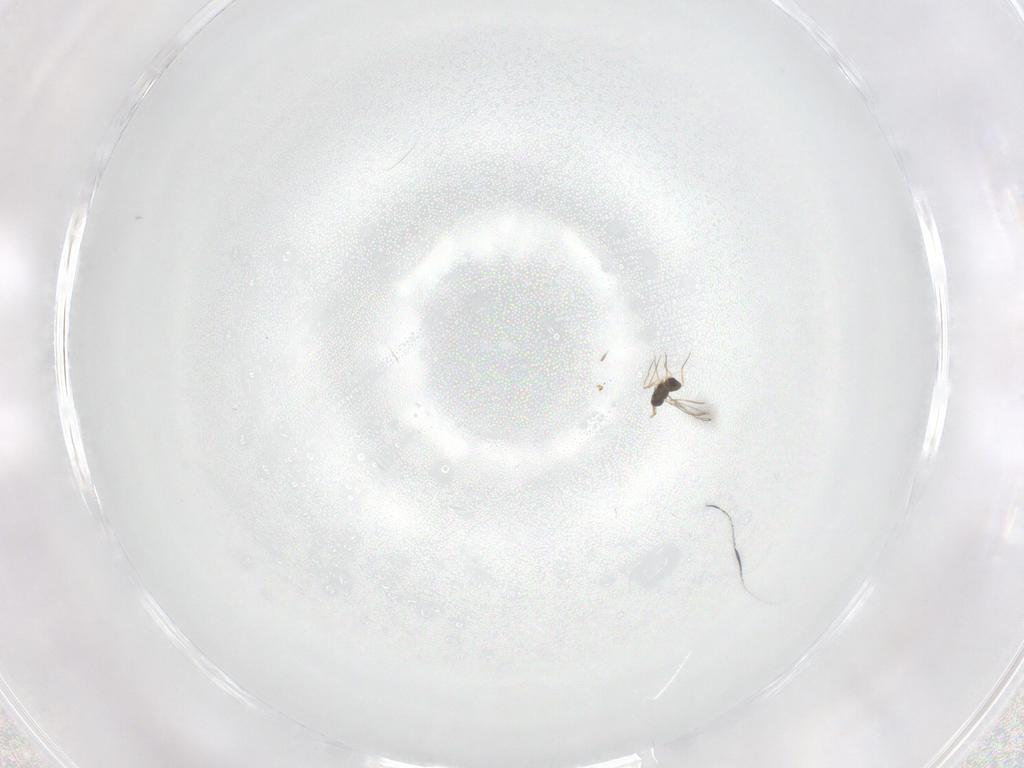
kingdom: Animalia
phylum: Arthropoda
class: Insecta
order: Hymenoptera
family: Mymaridae
